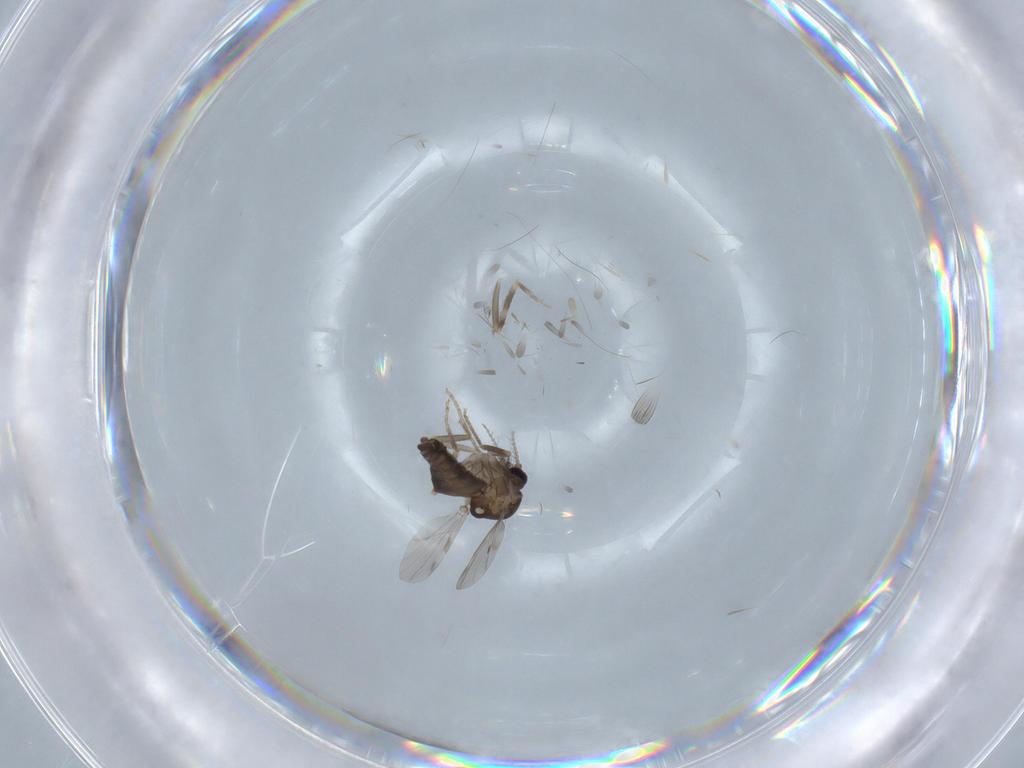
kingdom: Animalia
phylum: Arthropoda
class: Insecta
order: Diptera
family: Ceratopogonidae
